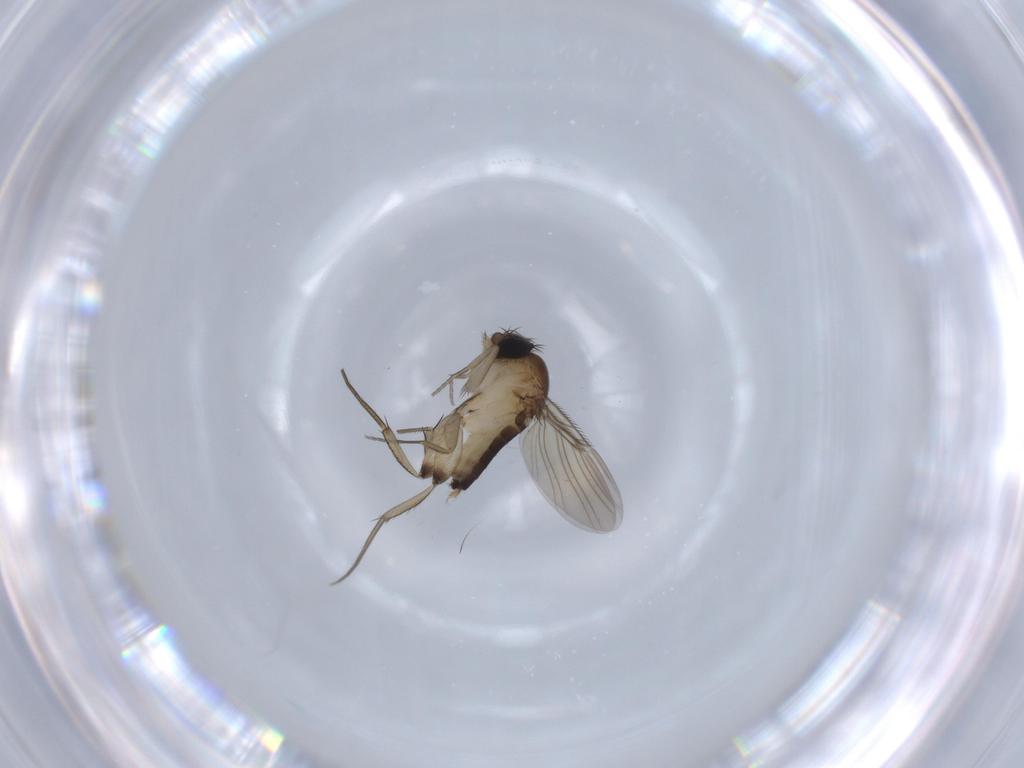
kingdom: Animalia
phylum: Arthropoda
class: Insecta
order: Diptera
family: Phoridae
